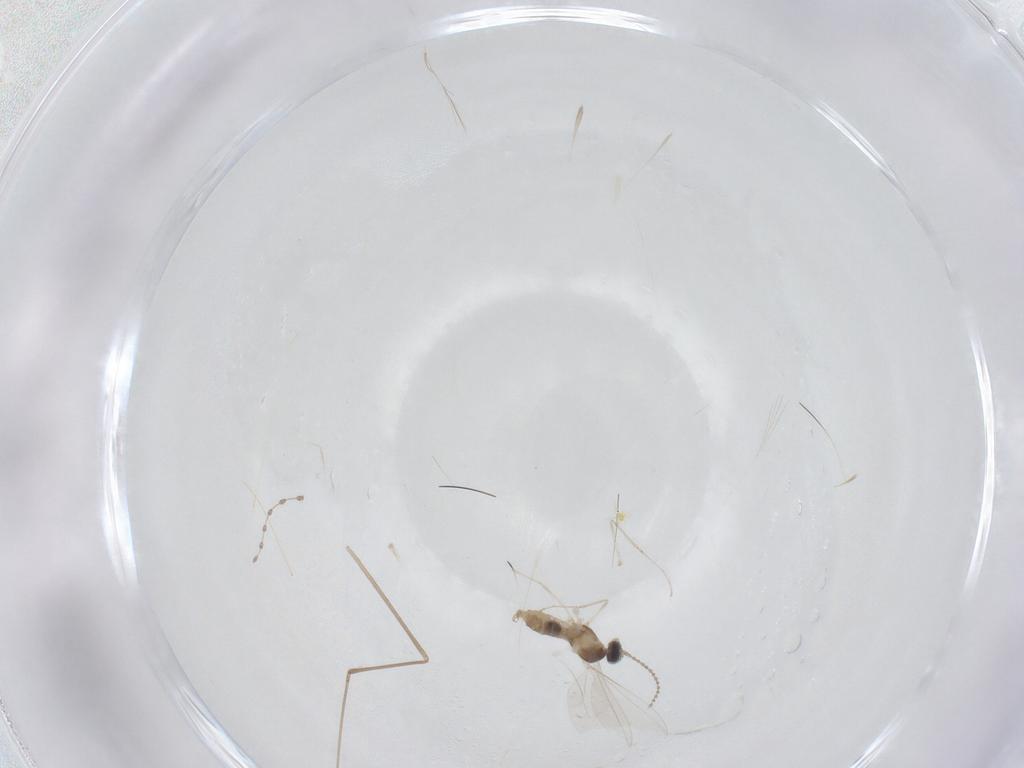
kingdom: Animalia
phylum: Arthropoda
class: Insecta
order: Diptera
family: Cecidomyiidae
